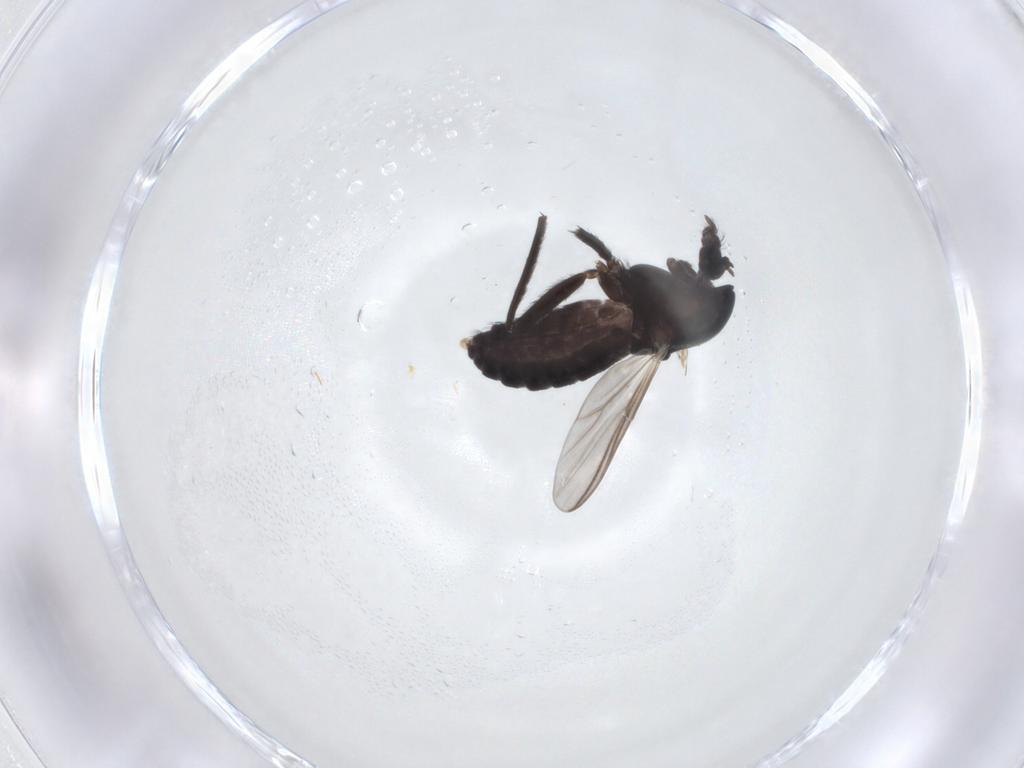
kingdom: Animalia
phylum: Arthropoda
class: Insecta
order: Diptera
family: Chironomidae
